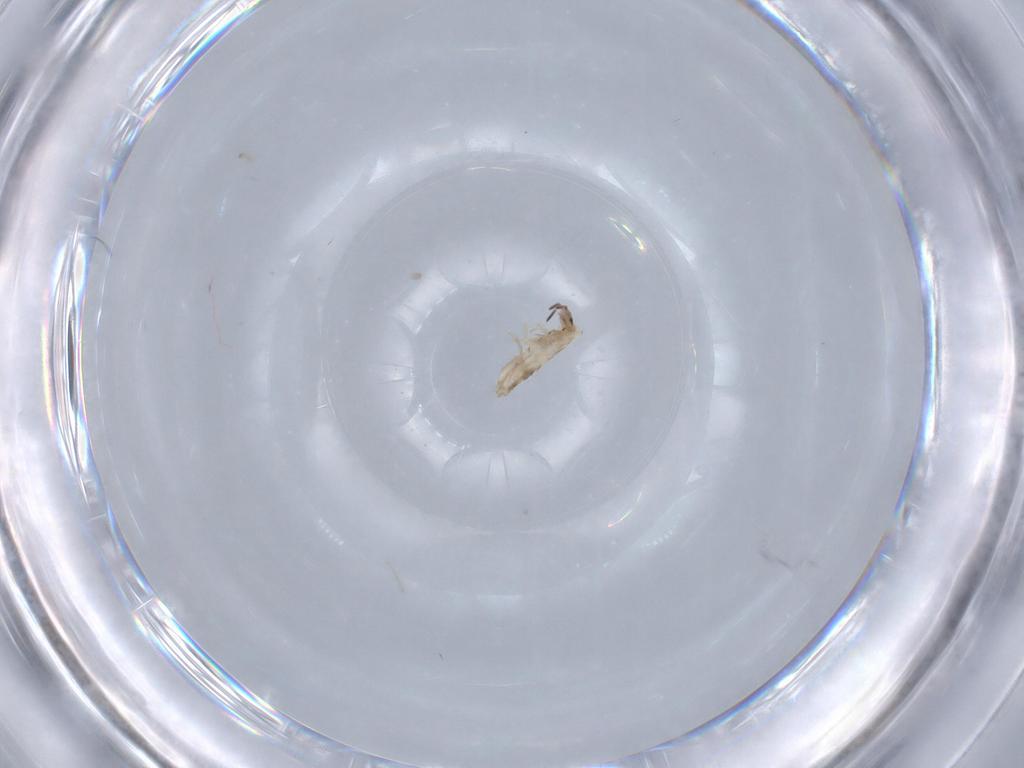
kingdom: Animalia
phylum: Arthropoda
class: Collembola
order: Entomobryomorpha
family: Entomobryidae
